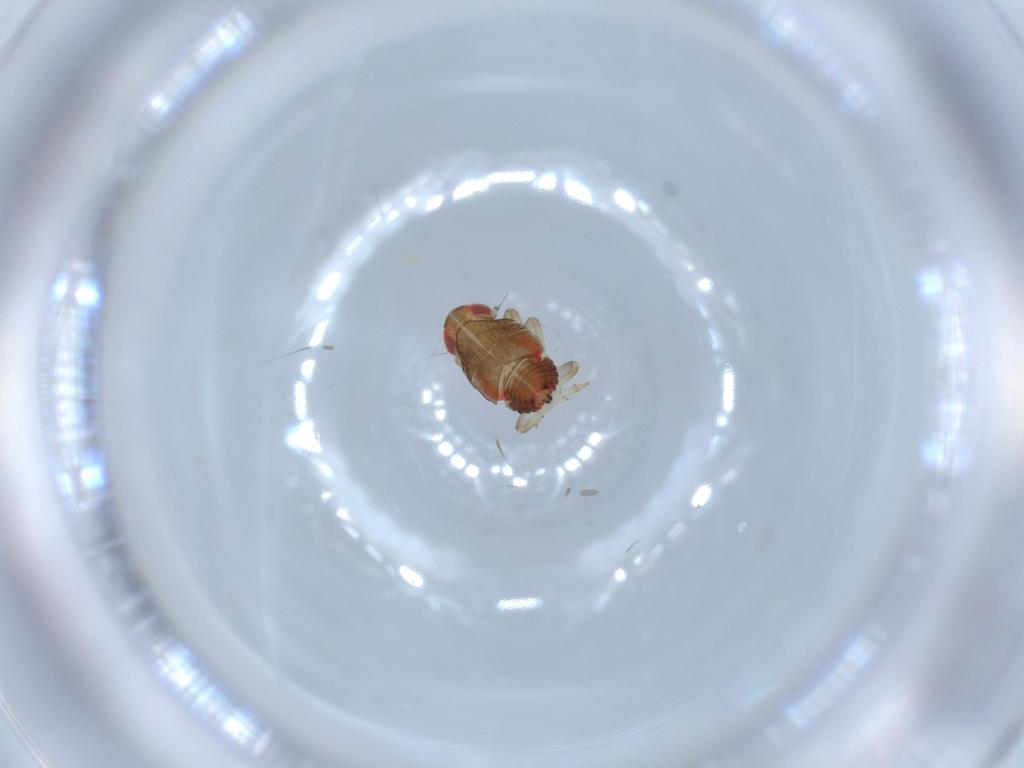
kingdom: Animalia
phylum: Arthropoda
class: Insecta
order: Hemiptera
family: Issidae
